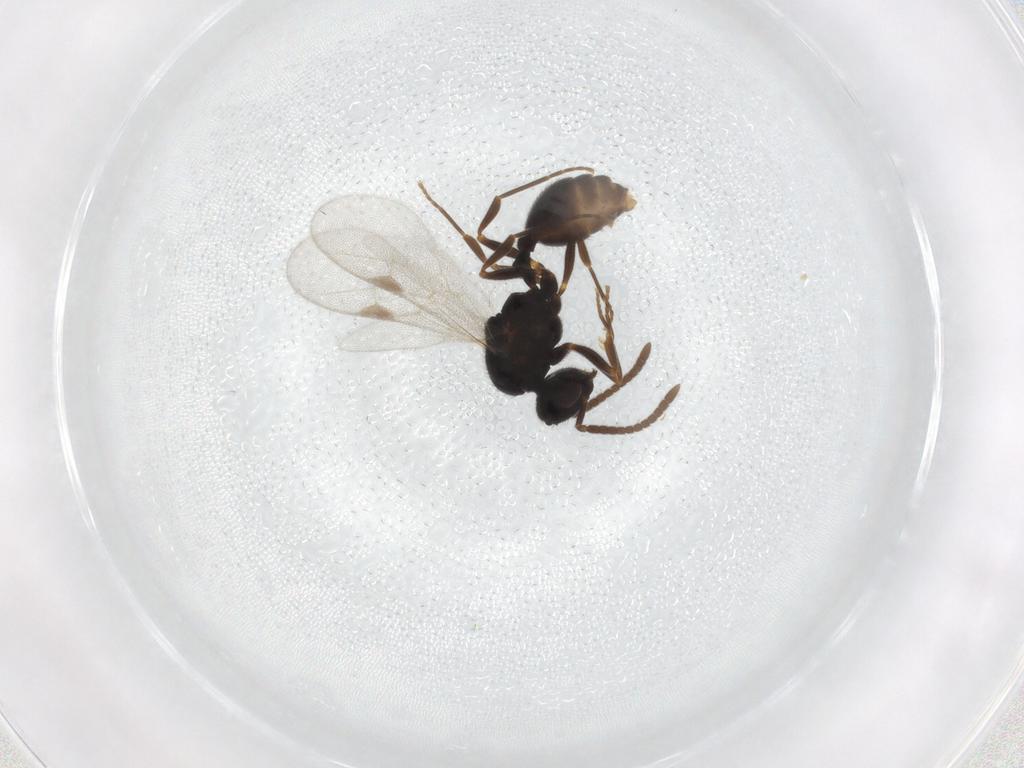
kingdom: Animalia
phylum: Arthropoda
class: Insecta
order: Hymenoptera
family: Formicidae
